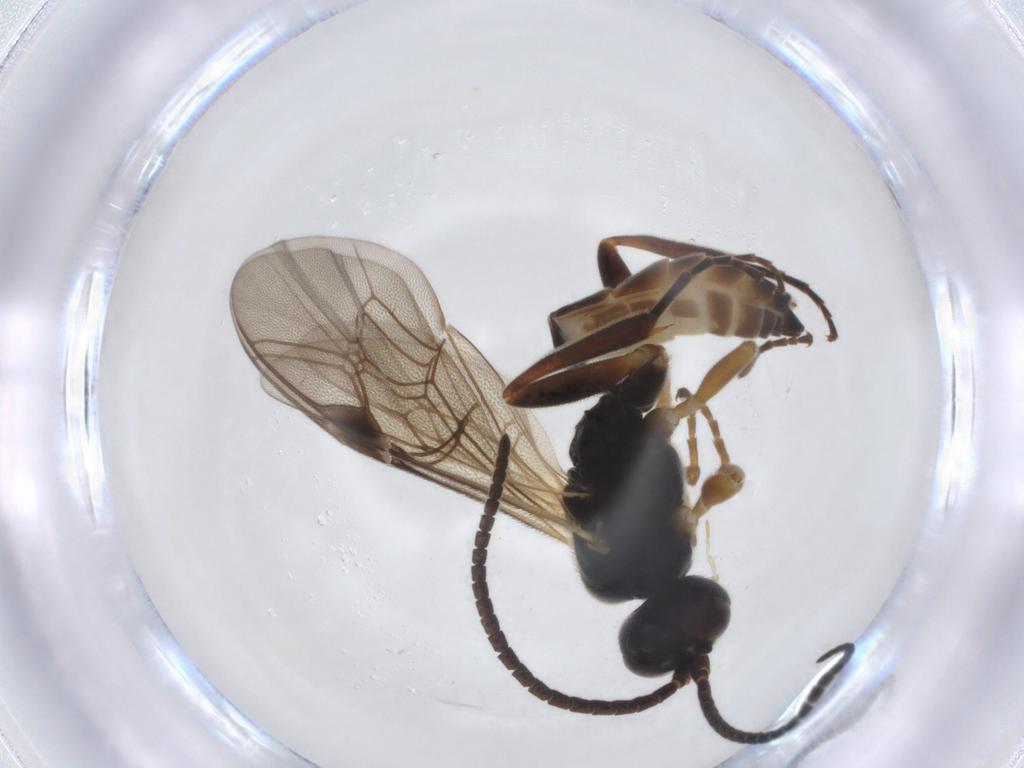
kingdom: Animalia
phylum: Arthropoda
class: Insecta
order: Hymenoptera
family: Ichneumonidae
